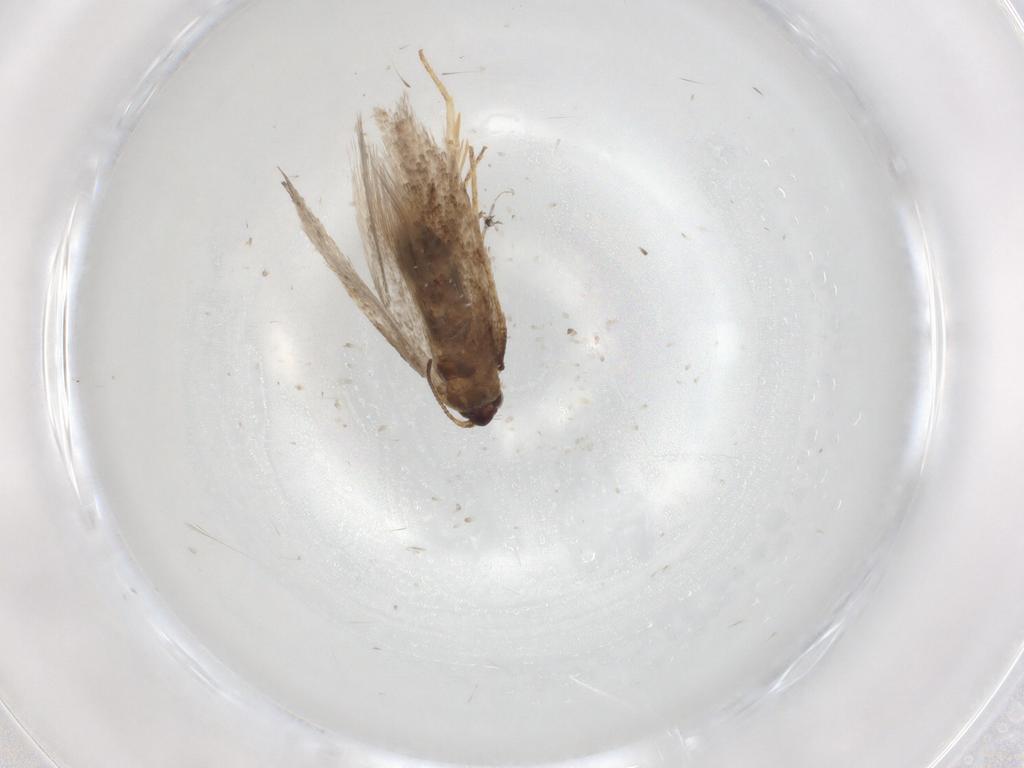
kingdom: Animalia
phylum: Arthropoda
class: Insecta
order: Lepidoptera
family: Nepticulidae
